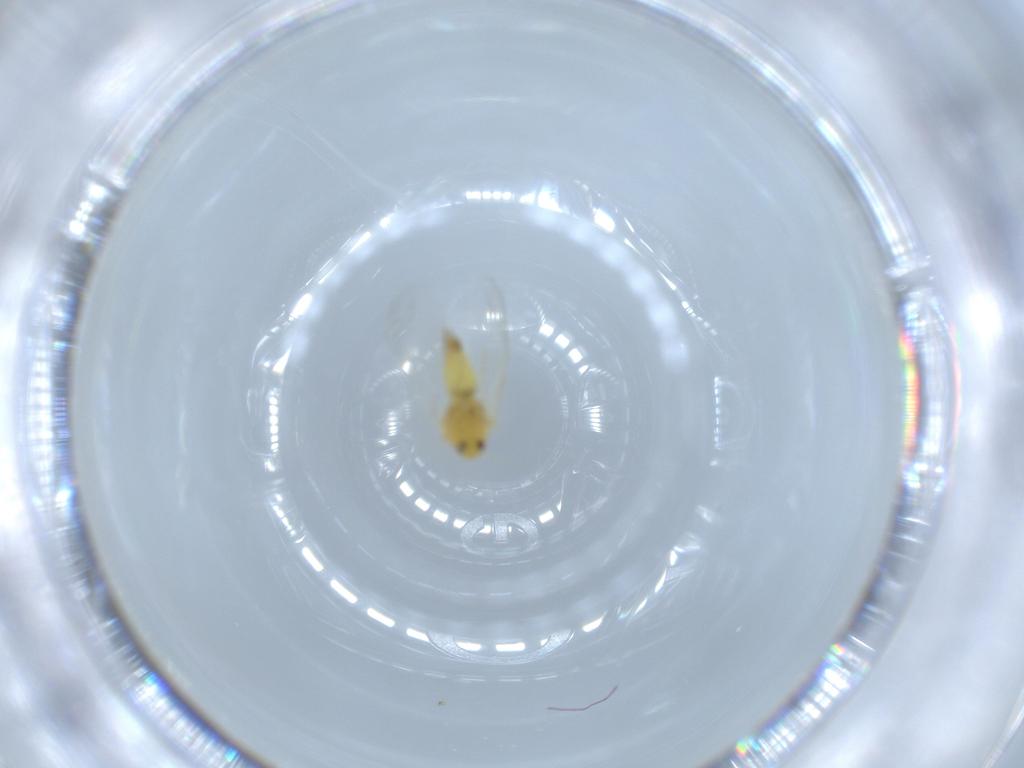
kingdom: Animalia
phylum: Arthropoda
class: Insecta
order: Hemiptera
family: Aleyrodidae
